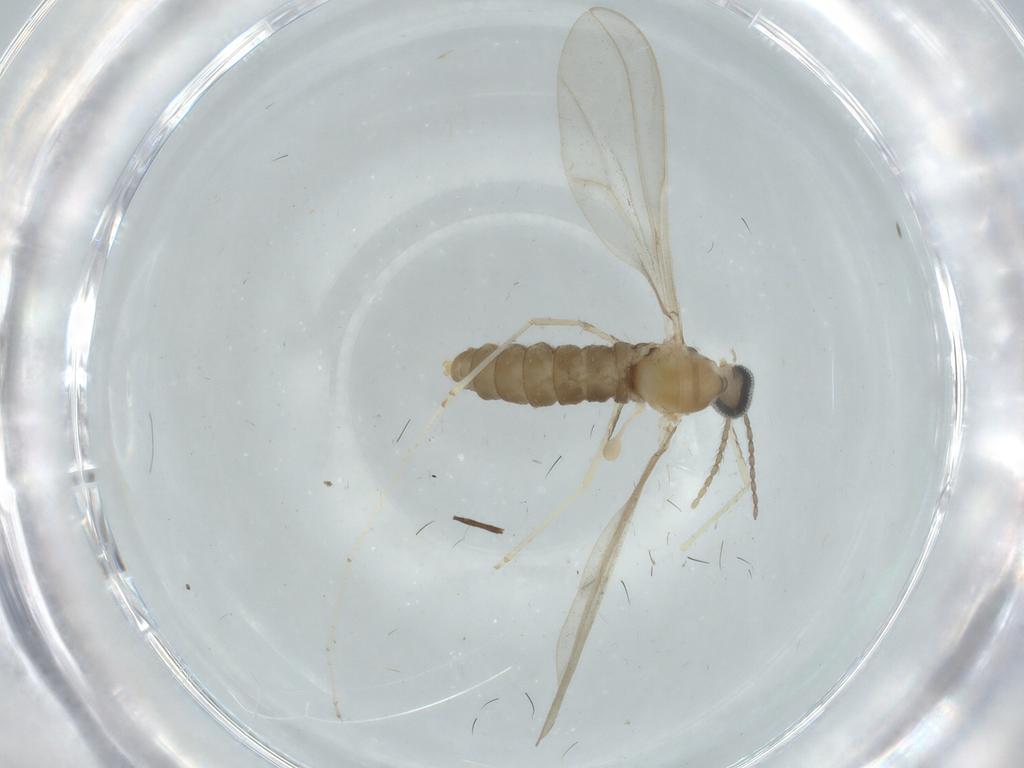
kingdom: Animalia
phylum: Arthropoda
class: Insecta
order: Diptera
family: Cecidomyiidae
